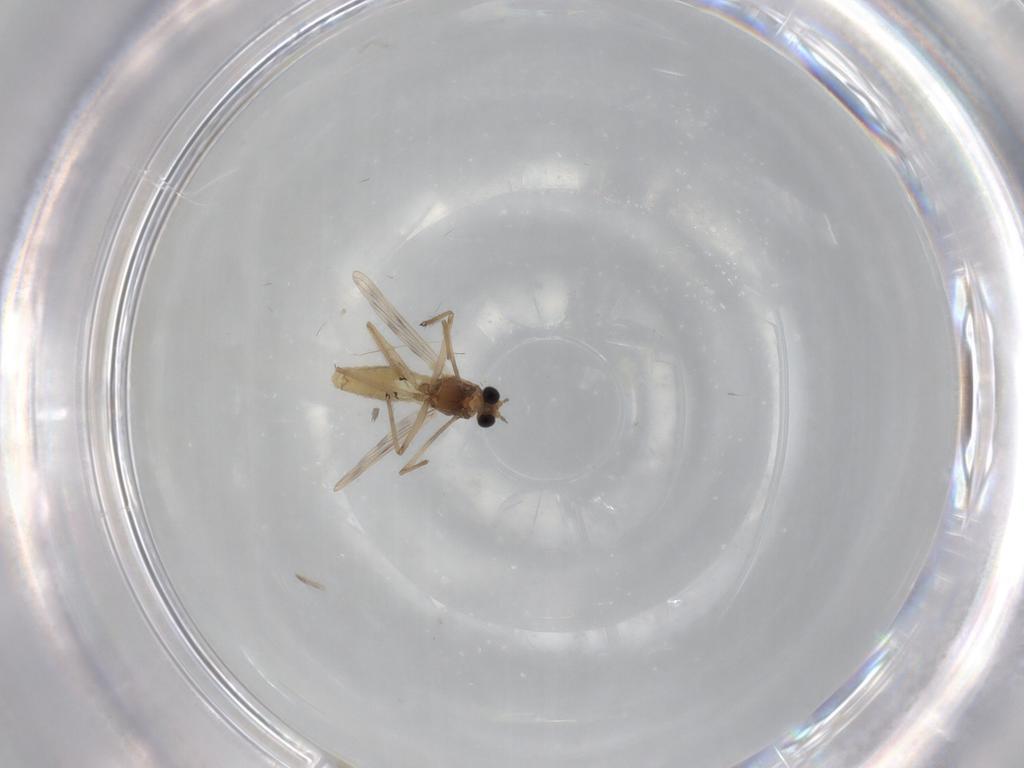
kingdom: Animalia
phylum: Arthropoda
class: Insecta
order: Diptera
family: Chironomidae
